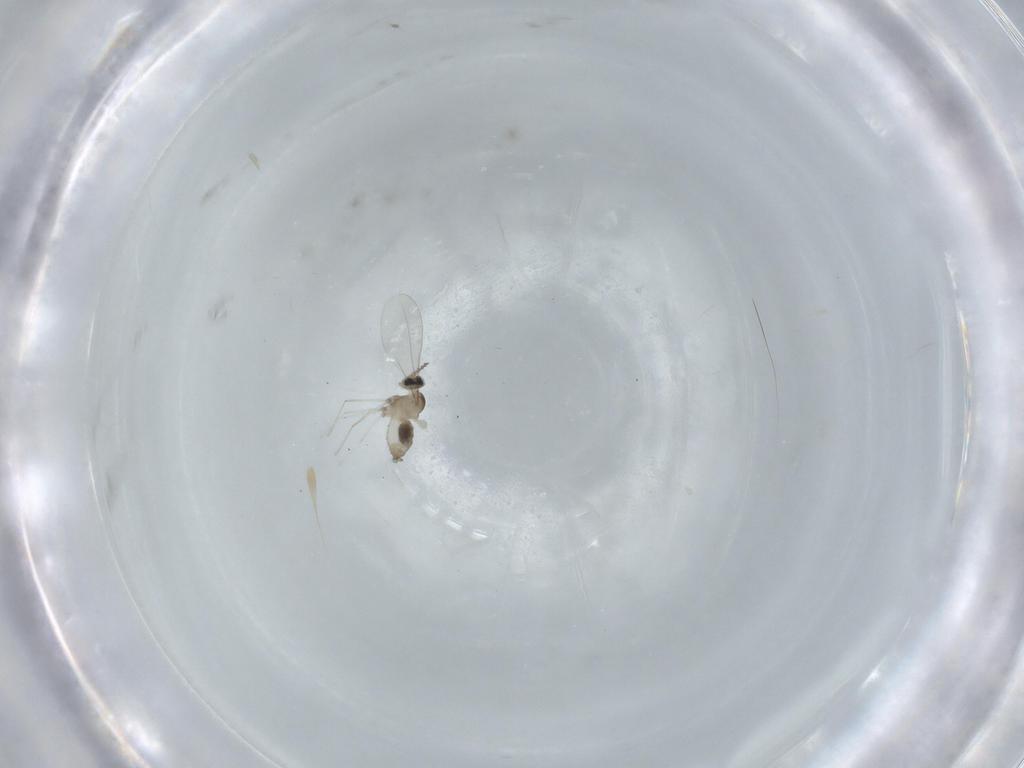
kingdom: Animalia
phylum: Arthropoda
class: Insecta
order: Diptera
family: Cecidomyiidae
